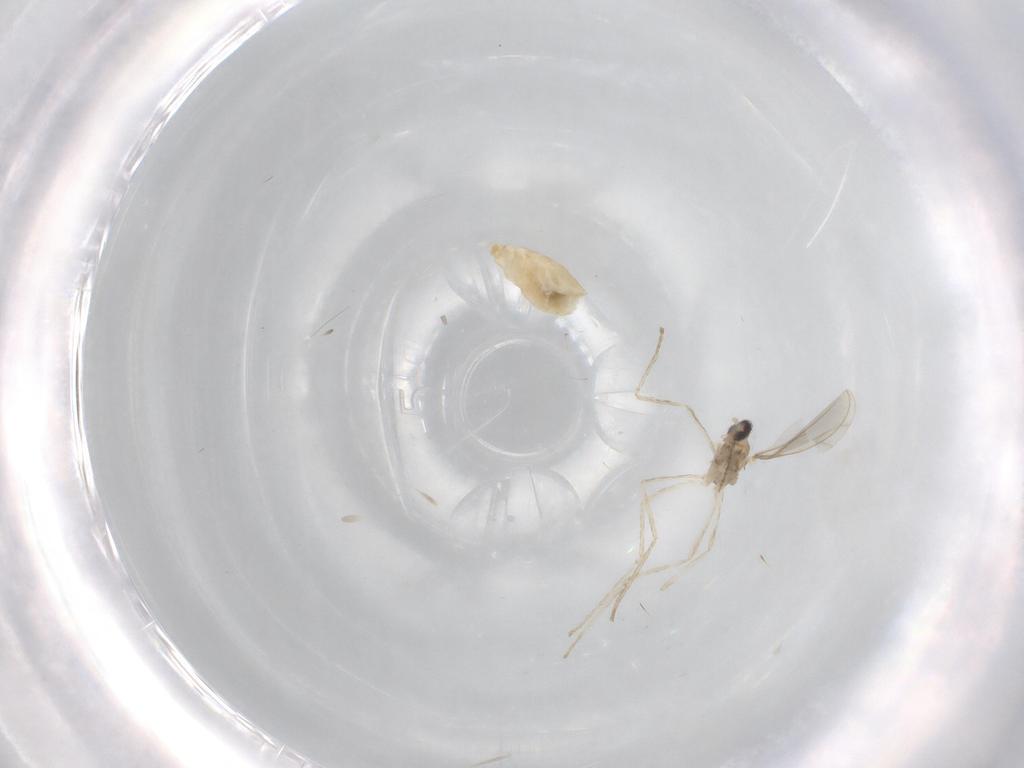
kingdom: Animalia
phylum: Arthropoda
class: Insecta
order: Diptera
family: Cecidomyiidae
